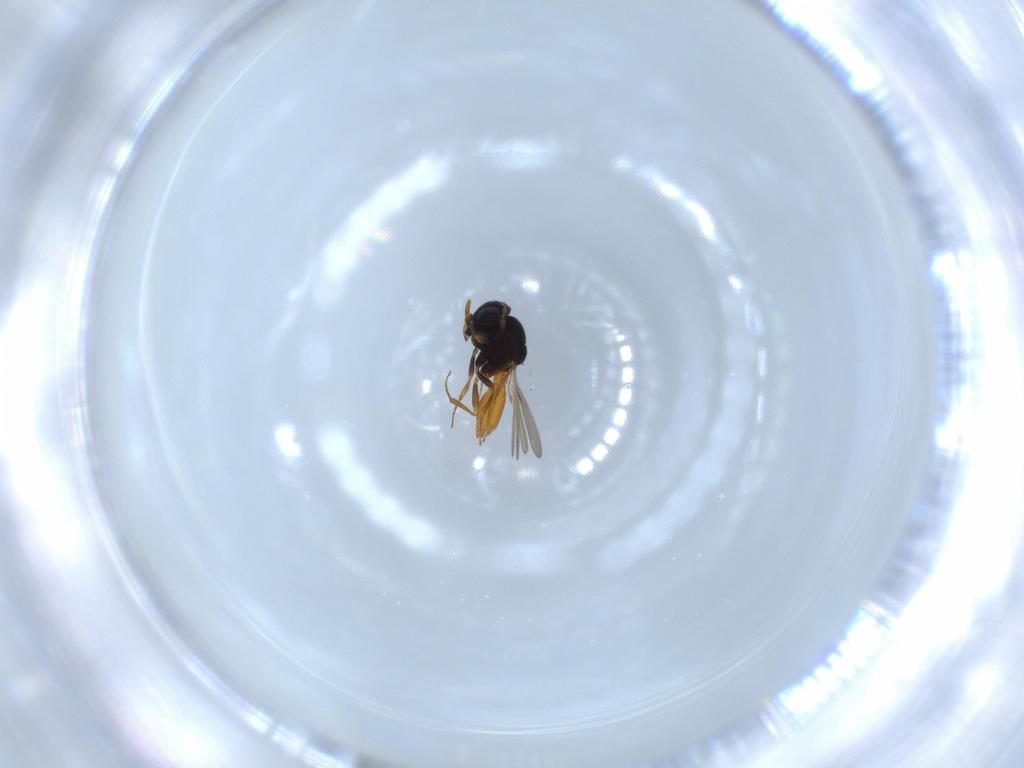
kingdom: Animalia
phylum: Arthropoda
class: Insecta
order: Hymenoptera
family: Scelionidae
